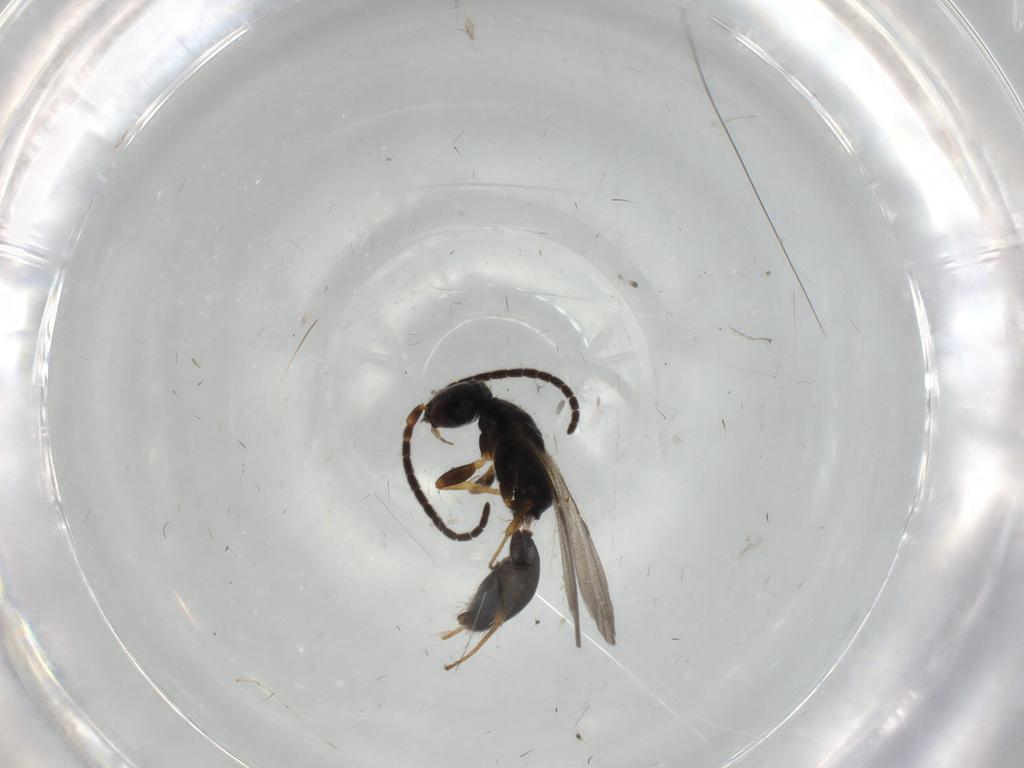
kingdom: Animalia
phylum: Arthropoda
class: Insecta
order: Hymenoptera
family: Bethylidae
